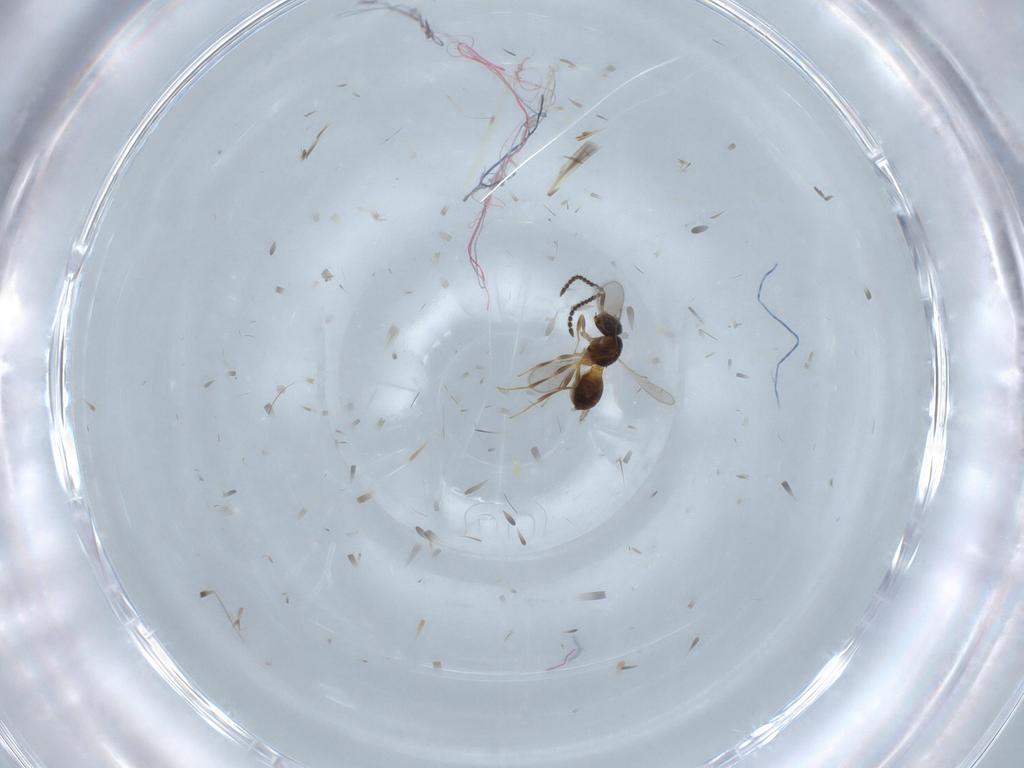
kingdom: Animalia
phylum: Arthropoda
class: Insecta
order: Hymenoptera
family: Scelionidae
